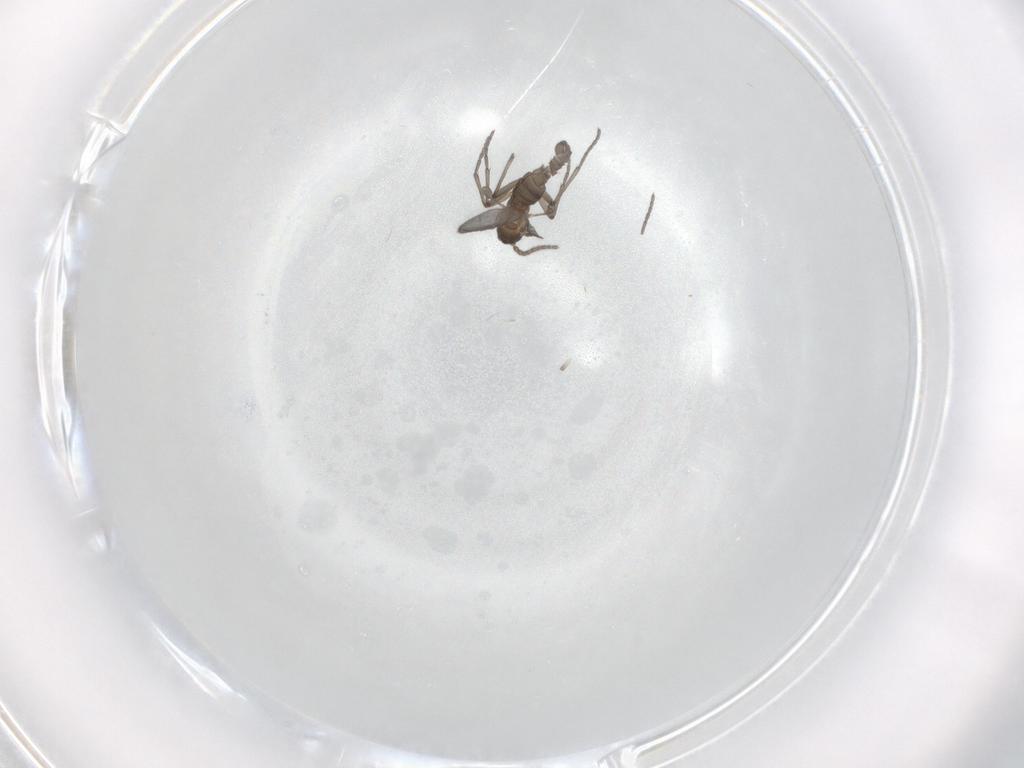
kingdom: Animalia
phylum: Arthropoda
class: Insecta
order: Diptera
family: Sciaridae
